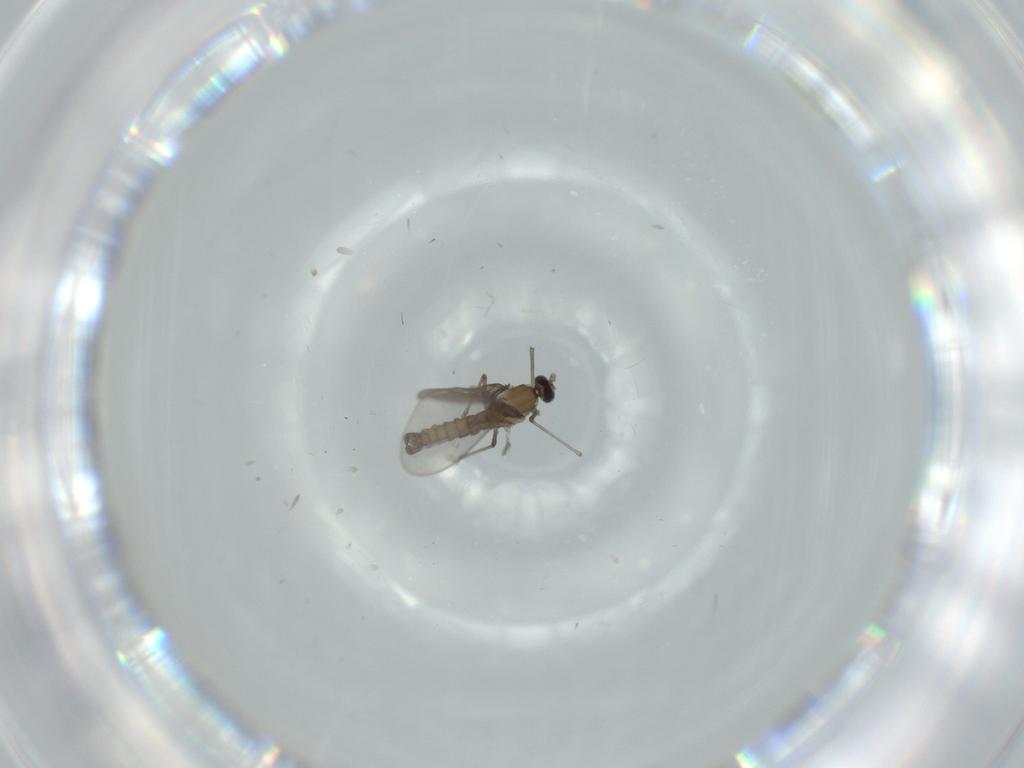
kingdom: Animalia
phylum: Arthropoda
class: Insecta
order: Diptera
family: Cecidomyiidae
